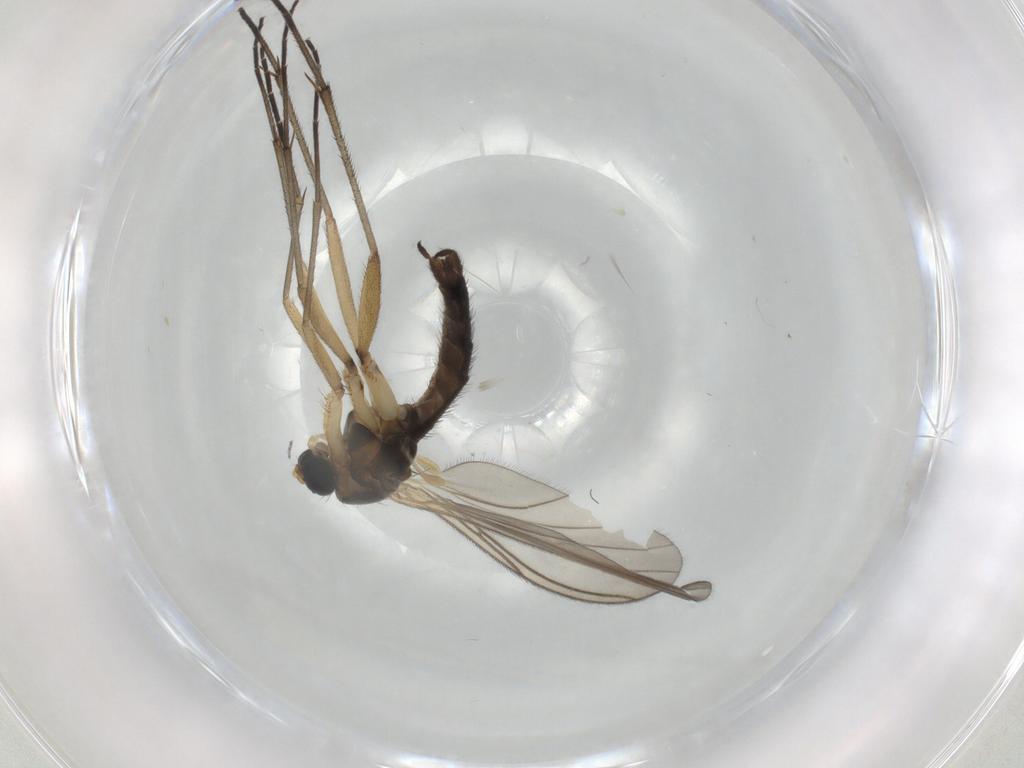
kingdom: Animalia
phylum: Arthropoda
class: Insecta
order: Diptera
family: Sciaridae
